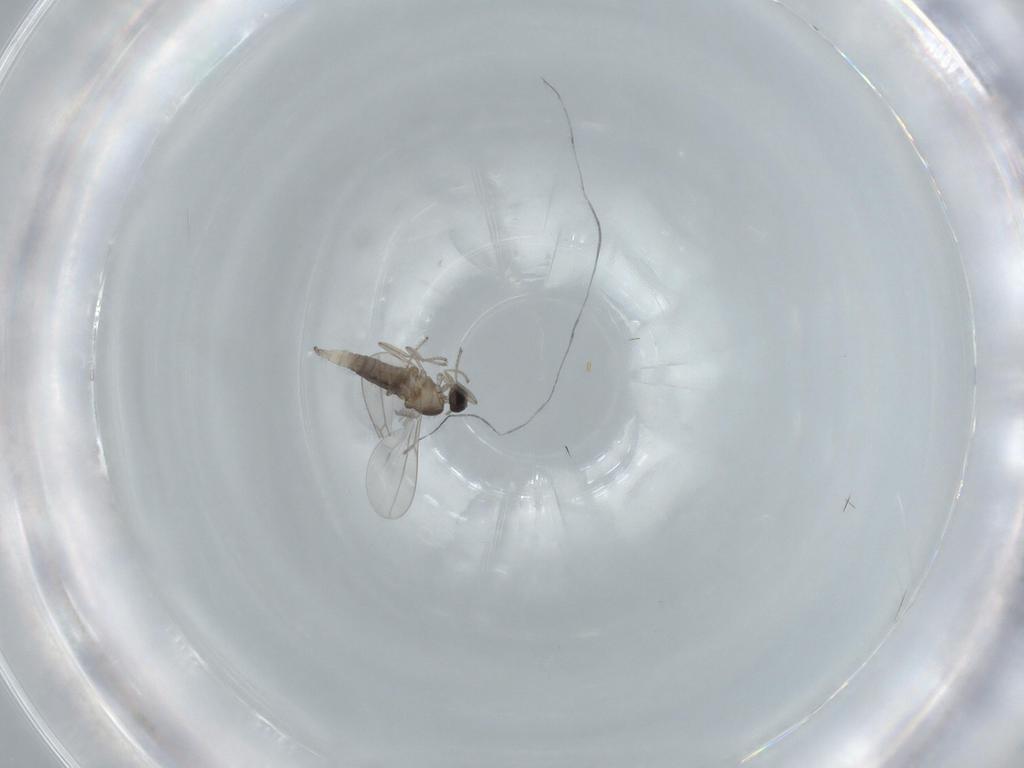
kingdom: Animalia
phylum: Arthropoda
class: Insecta
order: Diptera
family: Cecidomyiidae
